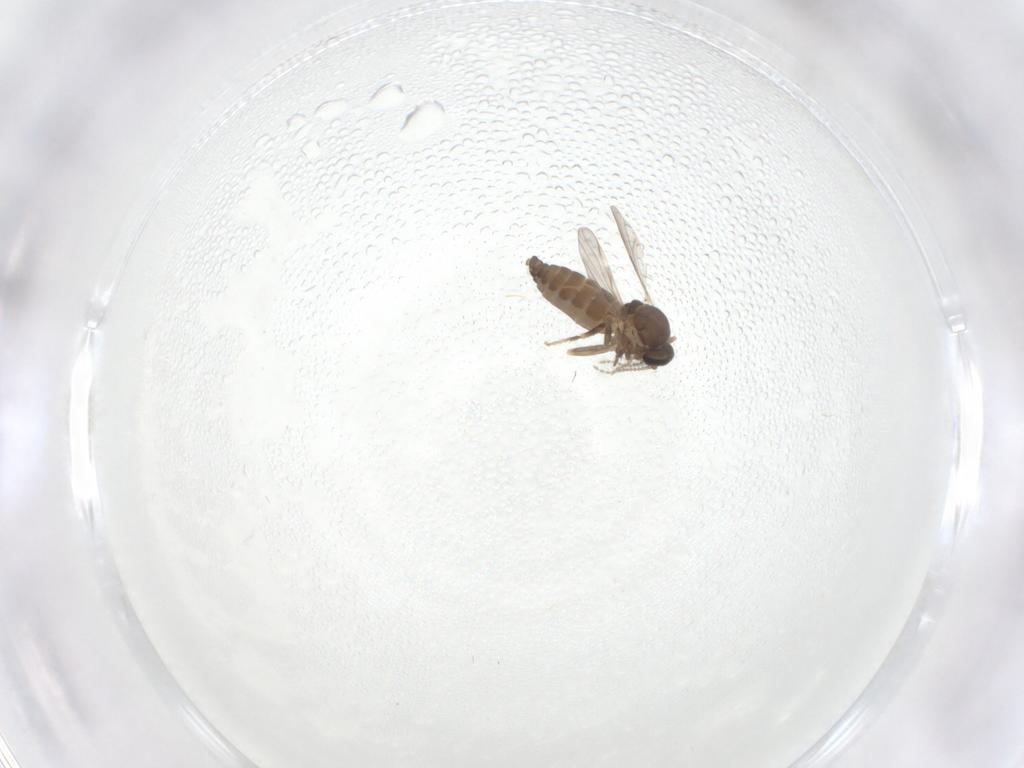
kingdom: Animalia
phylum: Arthropoda
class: Insecta
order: Diptera
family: Ceratopogonidae
